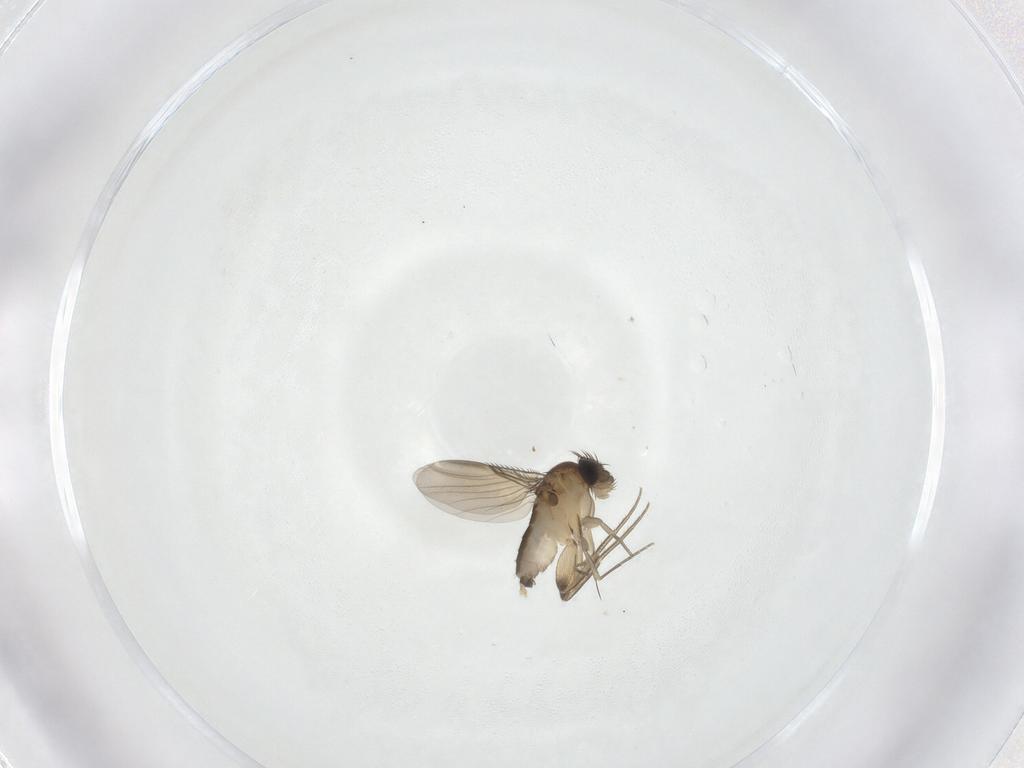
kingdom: Animalia
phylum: Arthropoda
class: Insecta
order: Diptera
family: Phoridae
